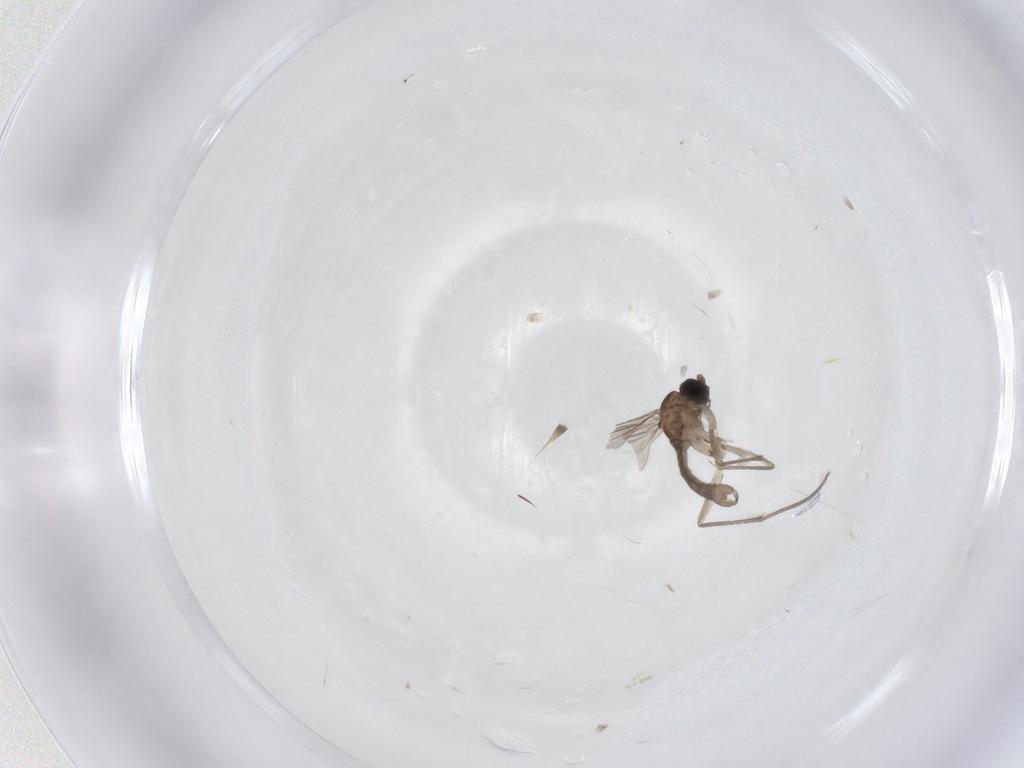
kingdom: Animalia
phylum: Arthropoda
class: Insecta
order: Diptera
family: Sciaridae
